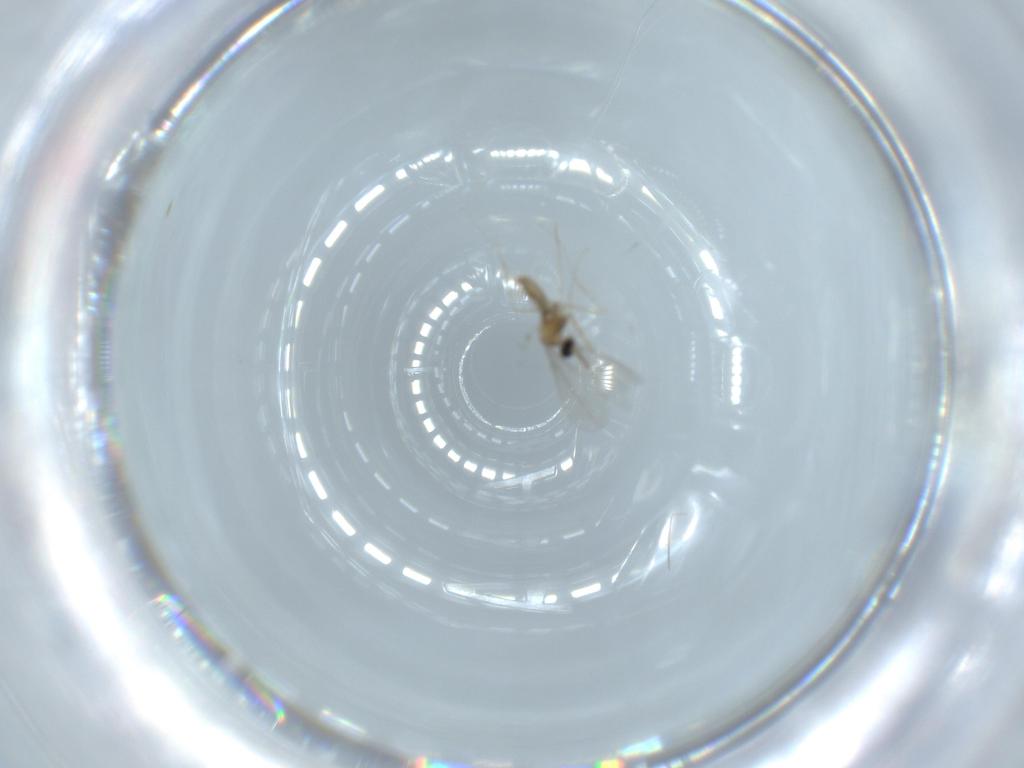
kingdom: Animalia
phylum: Arthropoda
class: Insecta
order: Diptera
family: Cecidomyiidae
